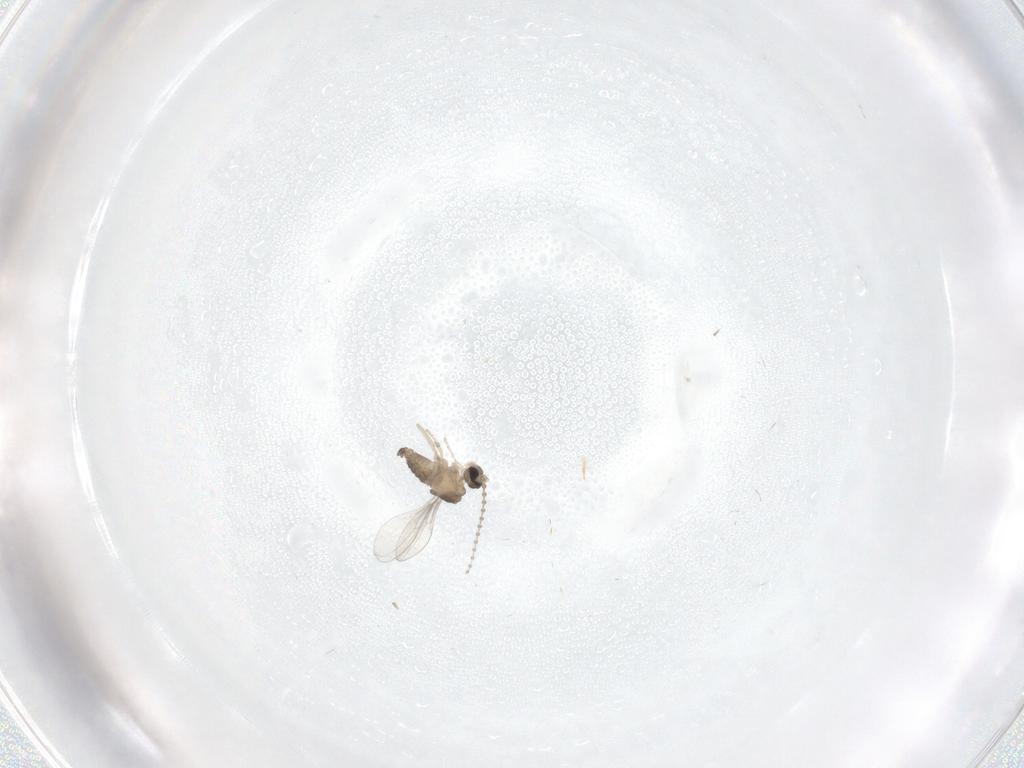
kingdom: Animalia
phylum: Arthropoda
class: Insecta
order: Diptera
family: Cecidomyiidae
